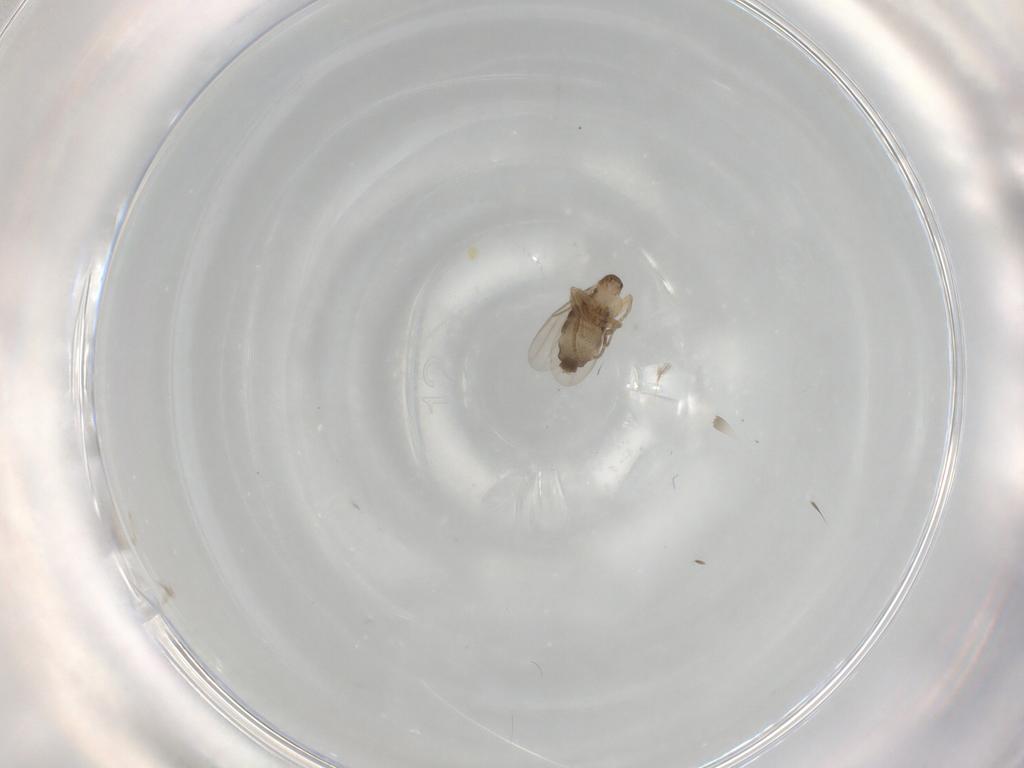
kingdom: Animalia
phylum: Arthropoda
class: Insecta
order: Diptera
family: Phoridae
